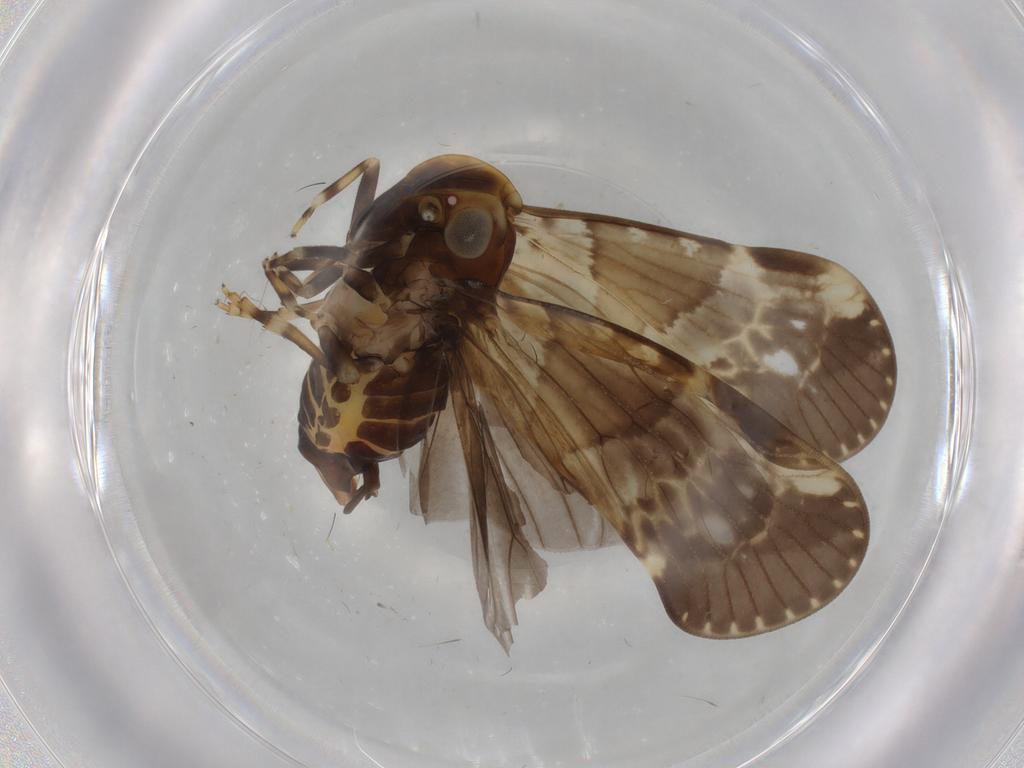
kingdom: Animalia
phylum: Arthropoda
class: Insecta
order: Hemiptera
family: Cixiidae
